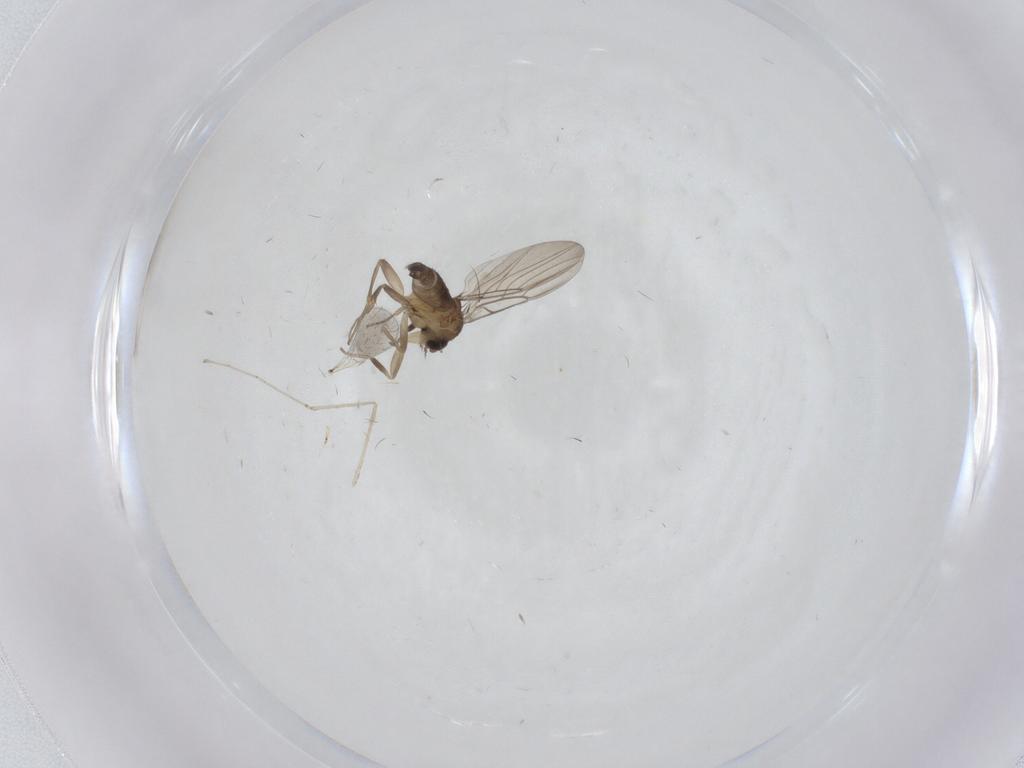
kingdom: Animalia
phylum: Arthropoda
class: Insecta
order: Diptera
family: Phoridae
